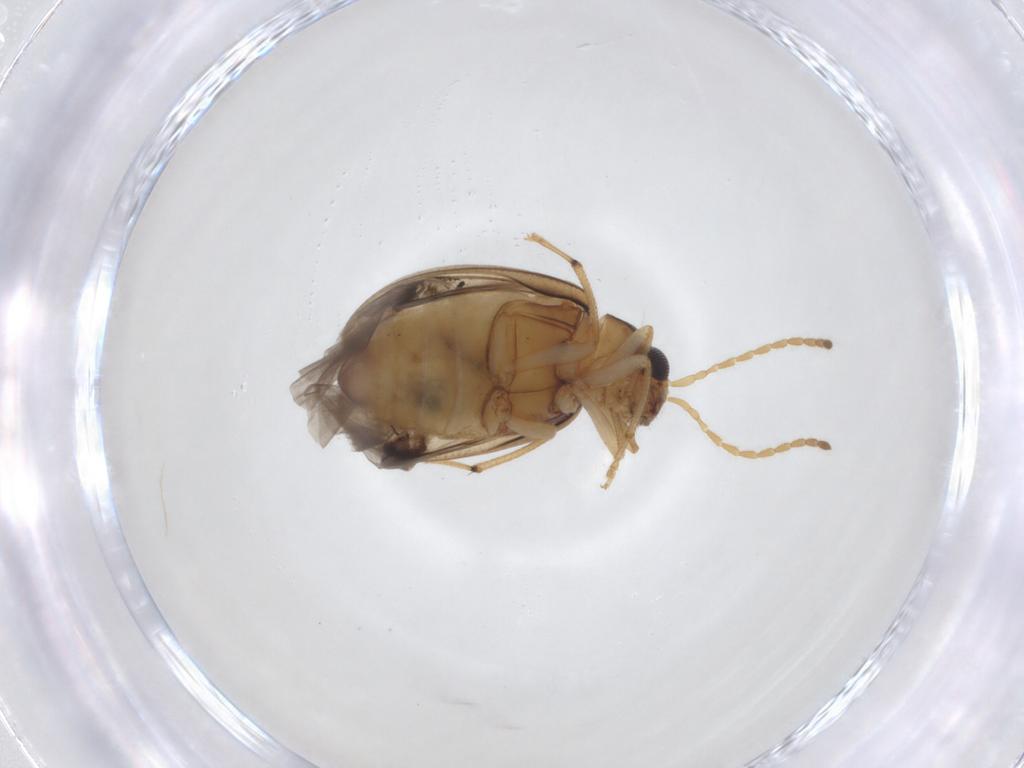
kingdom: Animalia
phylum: Arthropoda
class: Insecta
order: Coleoptera
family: Chrysomelidae
